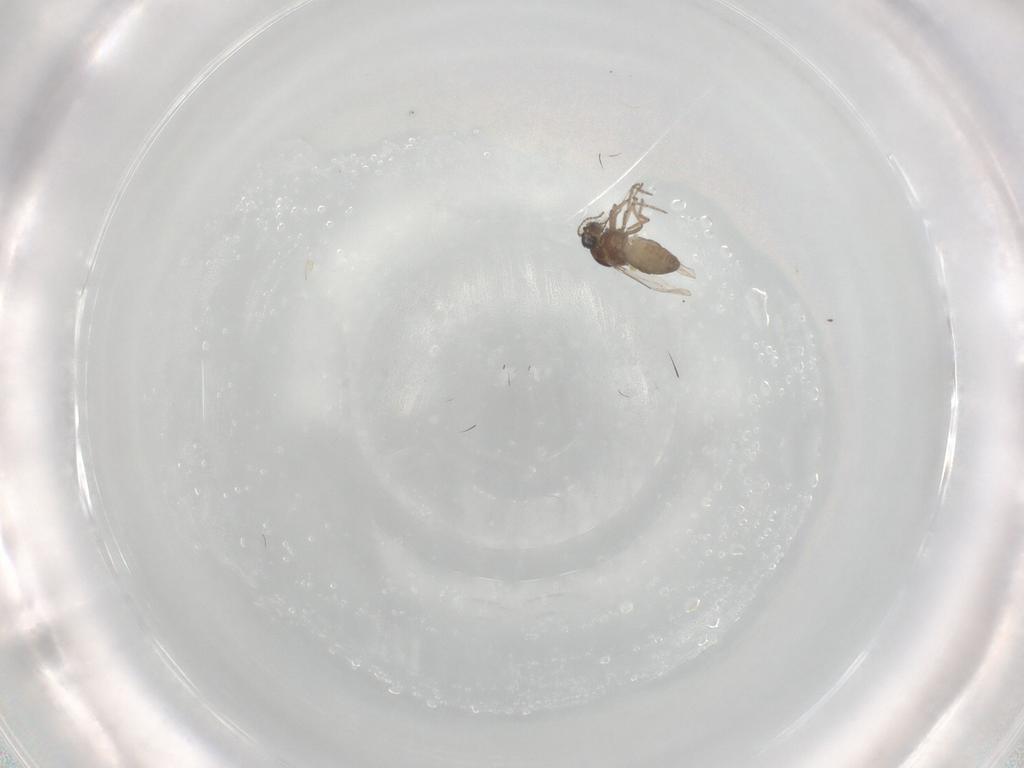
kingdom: Animalia
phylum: Arthropoda
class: Insecta
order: Diptera
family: Ceratopogonidae
